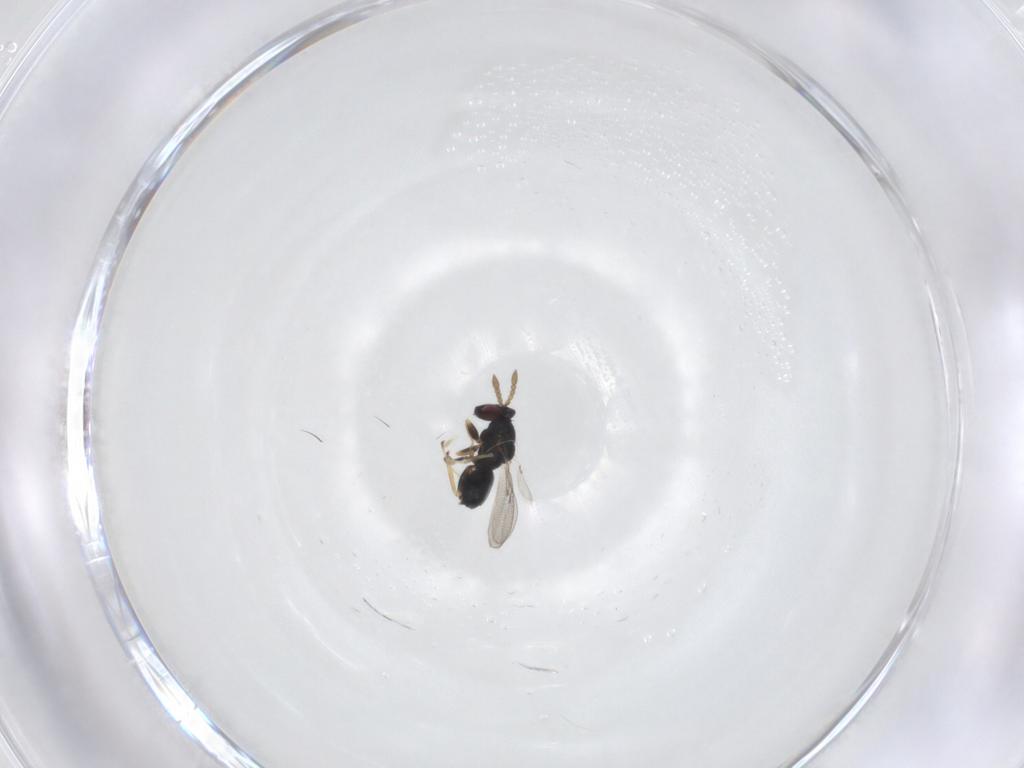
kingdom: Animalia
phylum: Arthropoda
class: Insecta
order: Hymenoptera
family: Eulophidae
